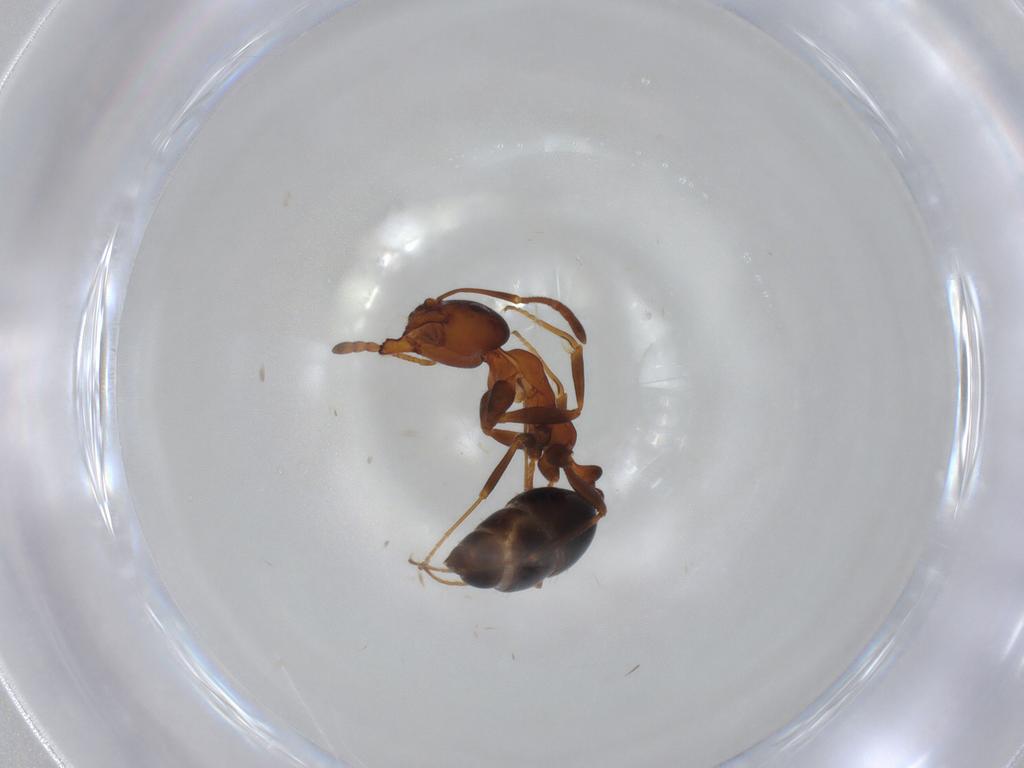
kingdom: Animalia
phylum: Arthropoda
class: Insecta
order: Hymenoptera
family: Formicidae
